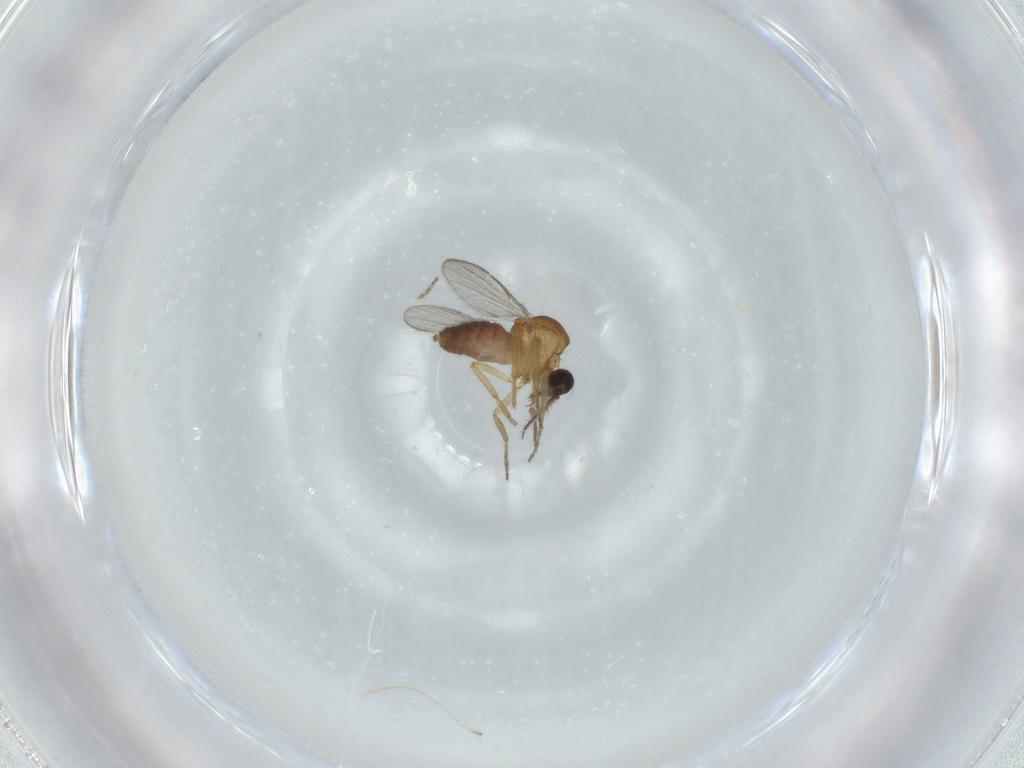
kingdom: Animalia
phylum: Arthropoda
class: Insecta
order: Diptera
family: Ceratopogonidae
